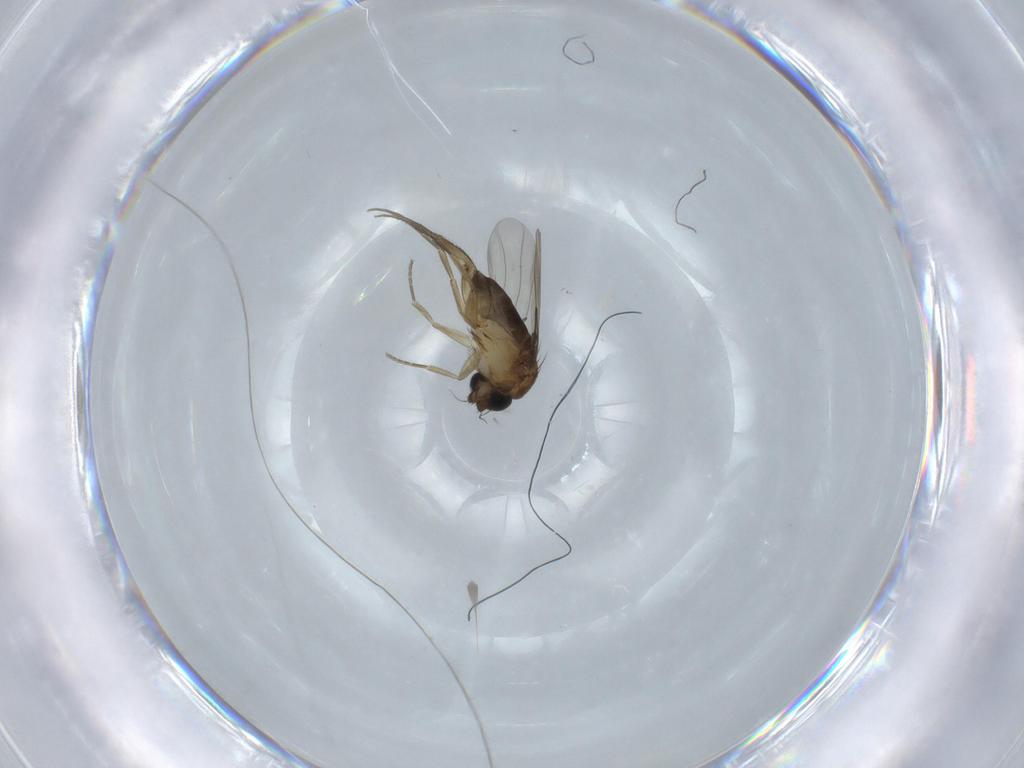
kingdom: Animalia
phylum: Arthropoda
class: Insecta
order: Diptera
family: Phoridae
